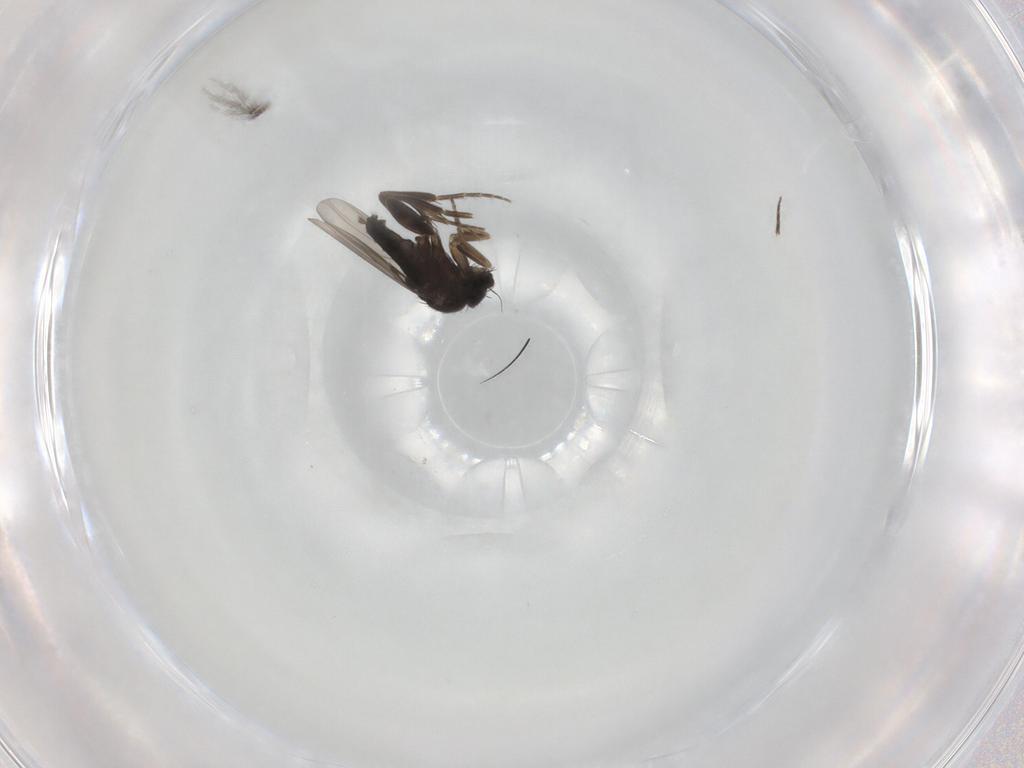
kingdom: Animalia
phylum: Arthropoda
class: Insecta
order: Diptera
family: Phoridae
